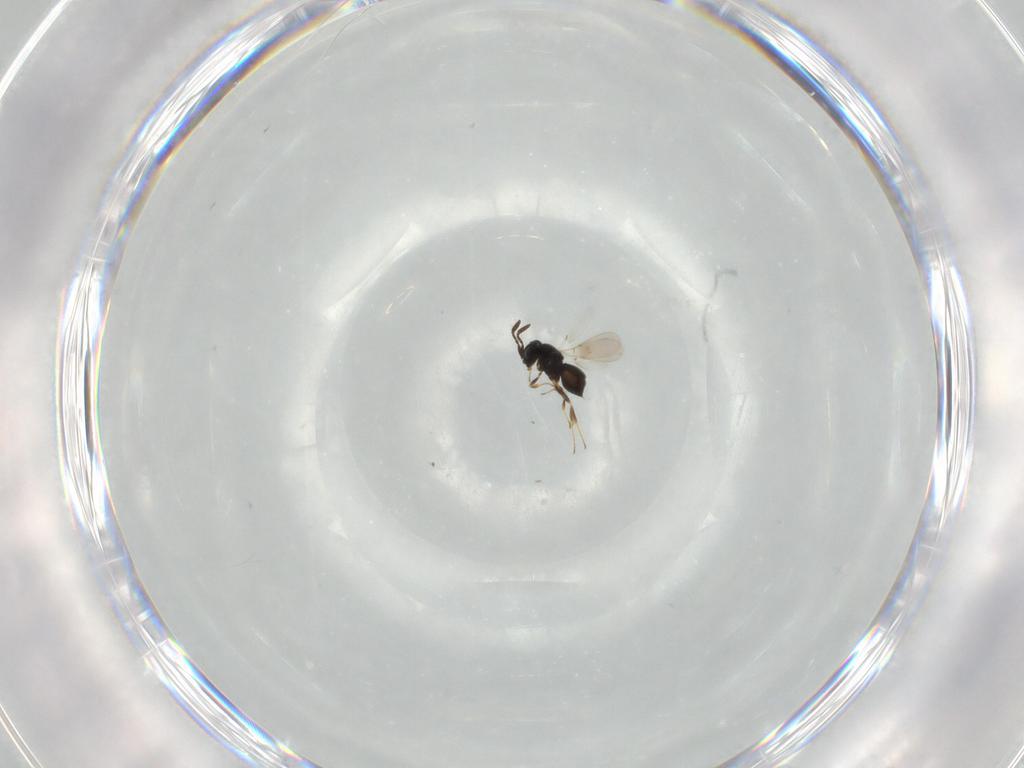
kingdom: Animalia
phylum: Arthropoda
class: Insecta
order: Hymenoptera
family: Scelionidae
